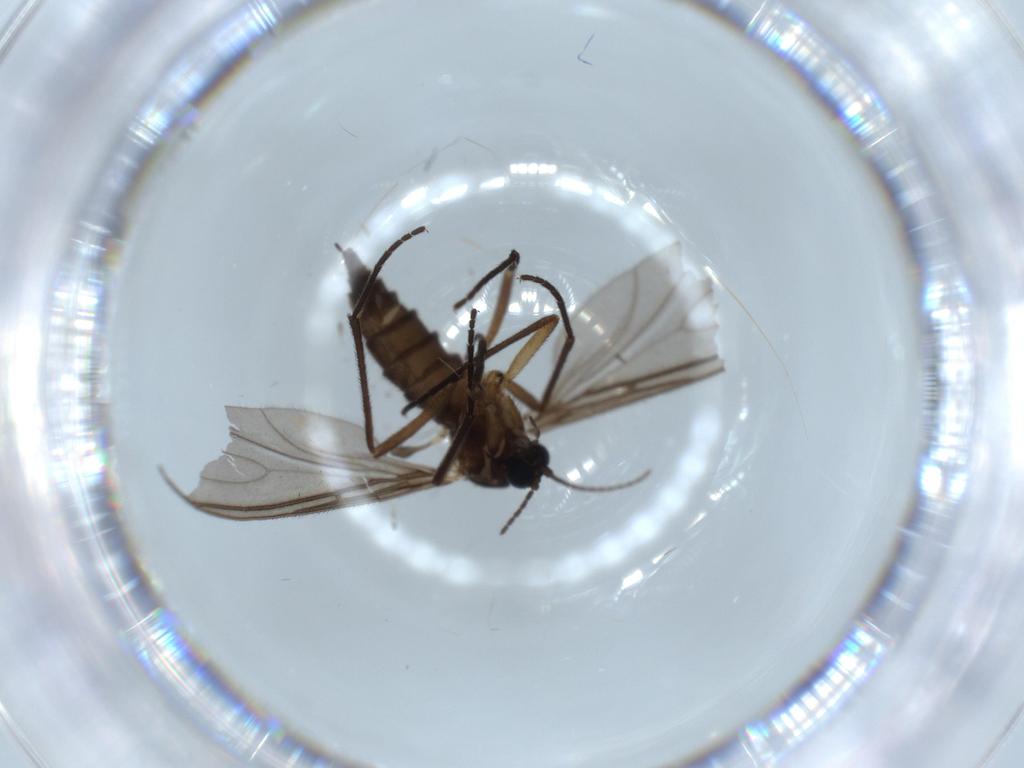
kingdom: Animalia
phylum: Arthropoda
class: Insecta
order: Diptera
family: Sciaridae
